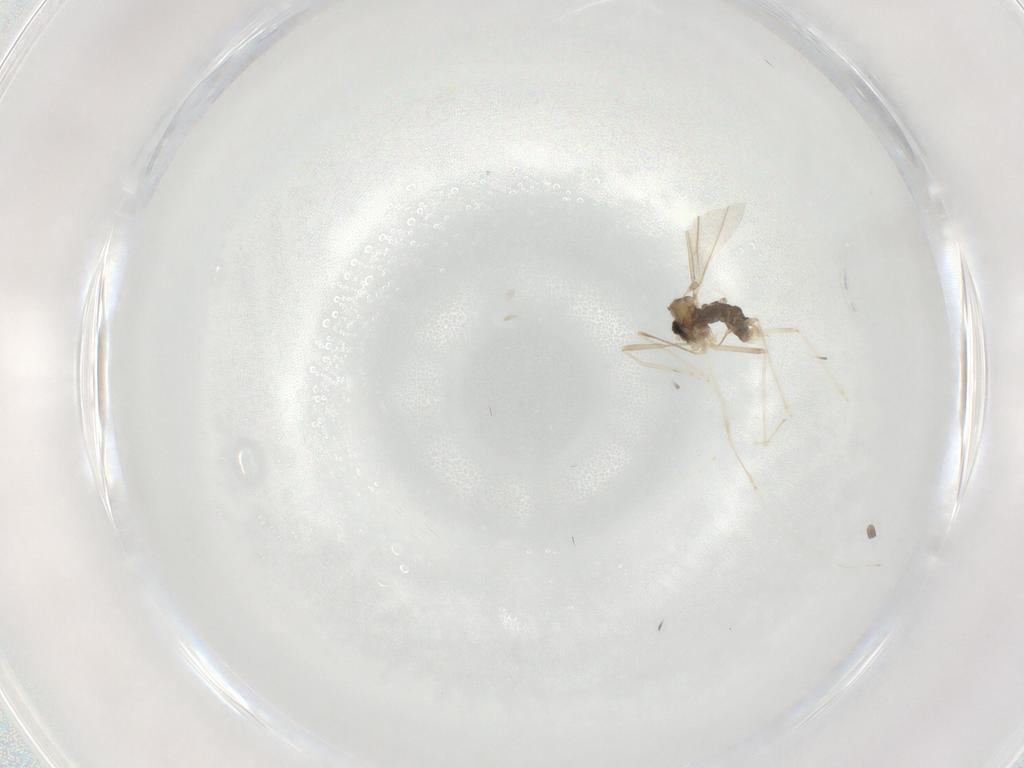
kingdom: Animalia
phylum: Arthropoda
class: Insecta
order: Diptera
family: Cecidomyiidae
